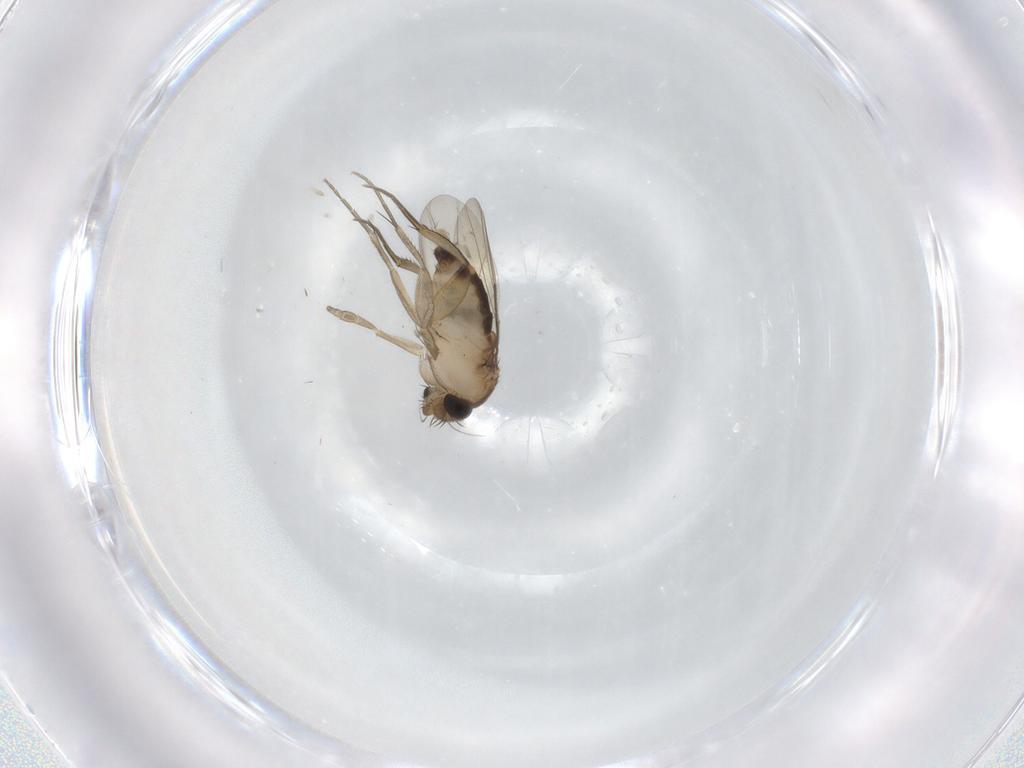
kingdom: Animalia
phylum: Arthropoda
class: Insecta
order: Diptera
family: Phoridae
